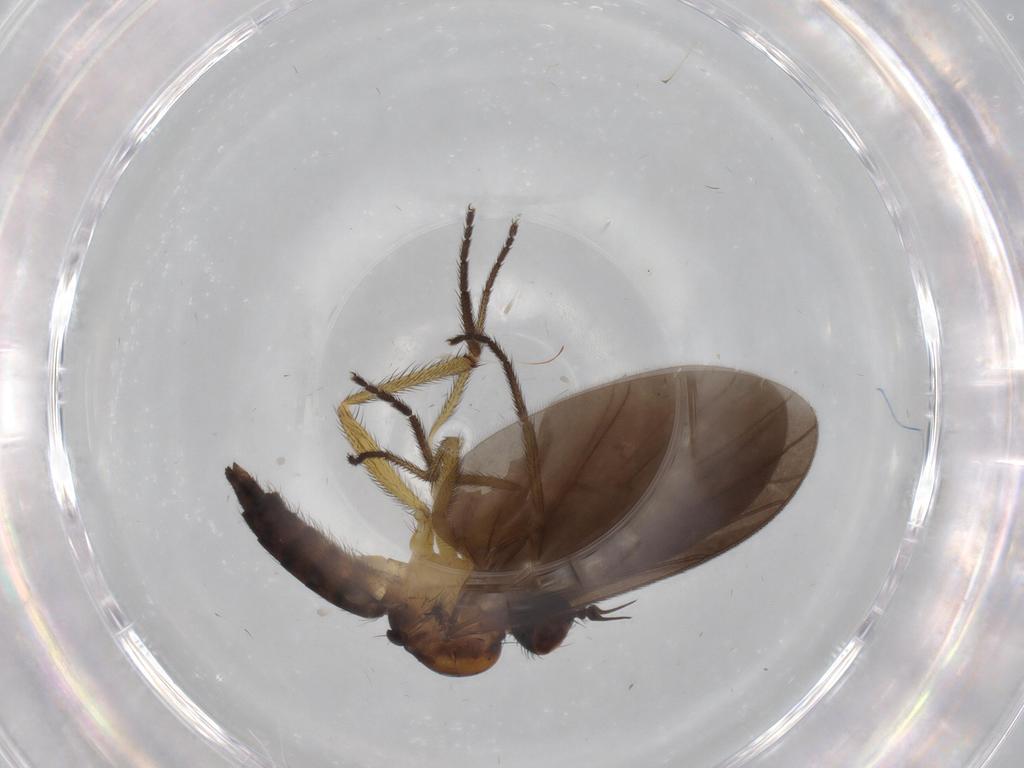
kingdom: Animalia
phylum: Arthropoda
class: Insecta
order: Diptera
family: Empididae
